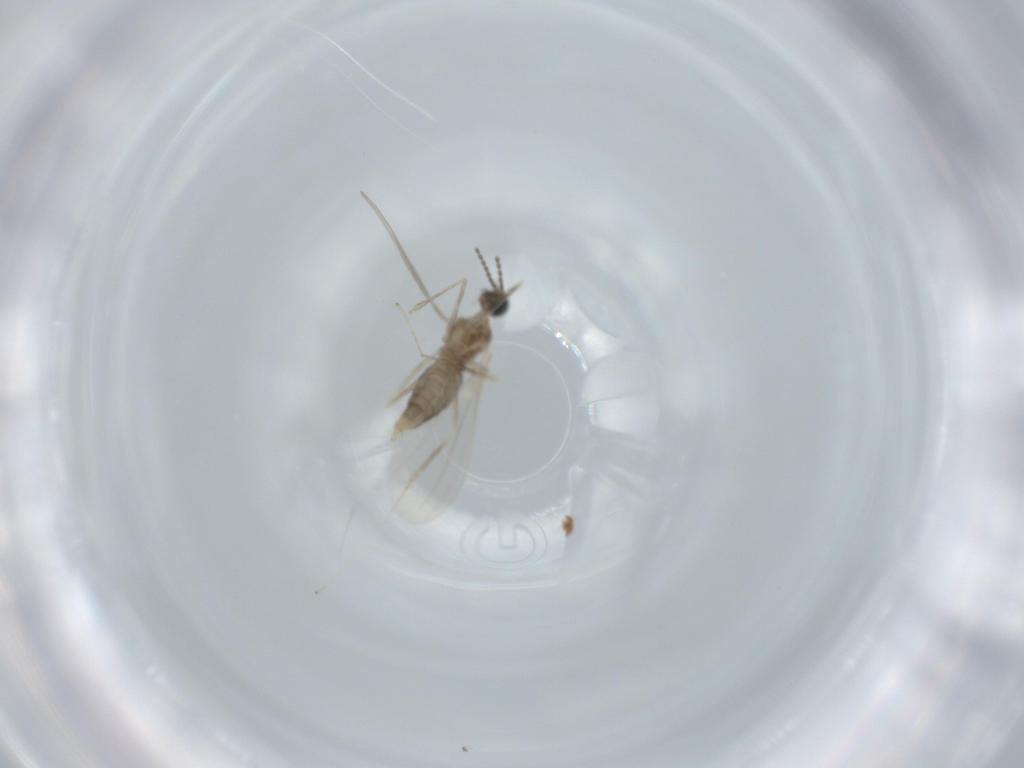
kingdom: Animalia
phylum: Arthropoda
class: Insecta
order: Diptera
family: Cecidomyiidae
